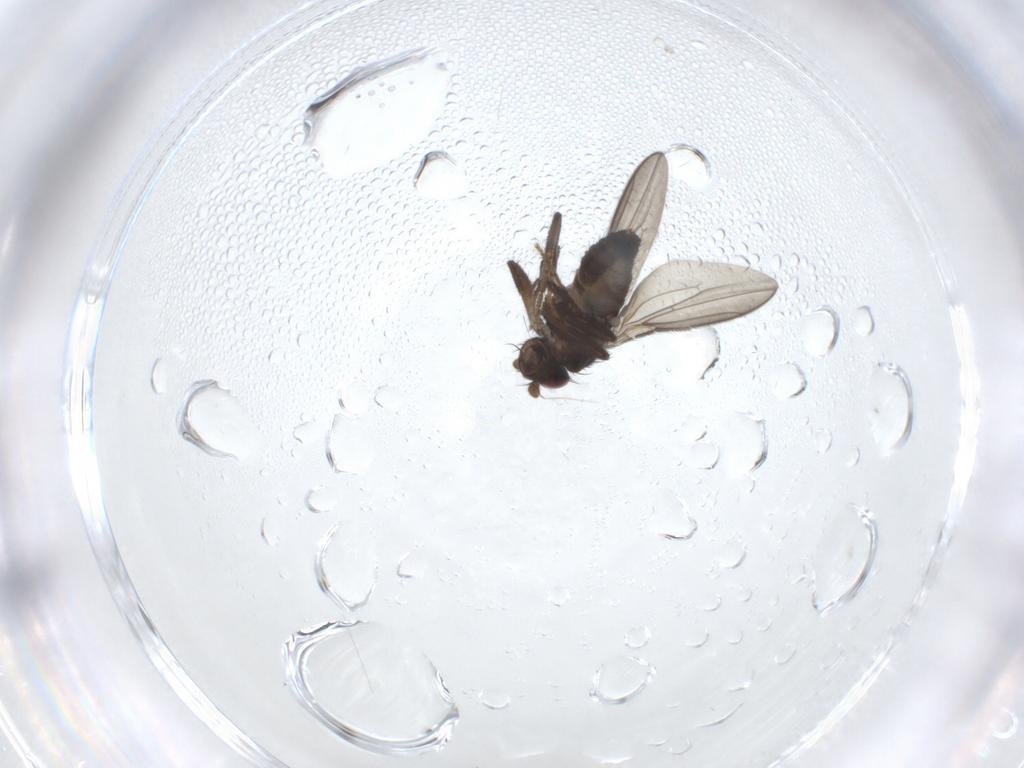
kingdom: Animalia
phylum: Arthropoda
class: Insecta
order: Diptera
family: Sphaeroceridae
